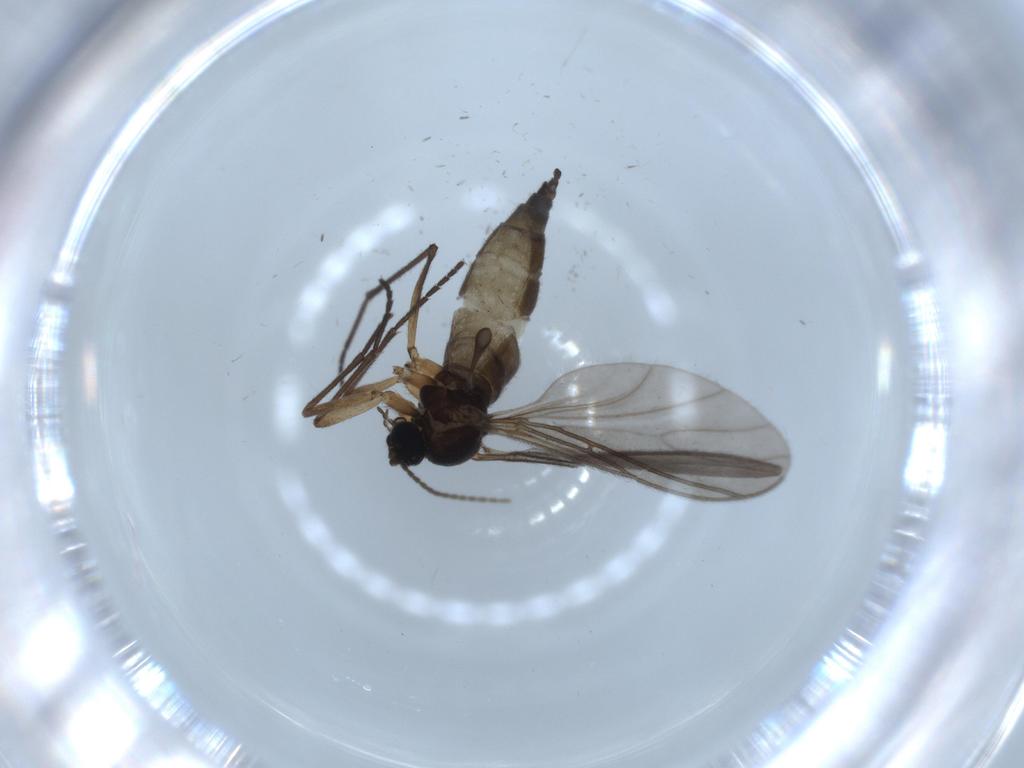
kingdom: Animalia
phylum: Arthropoda
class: Insecta
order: Diptera
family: Sciaridae
